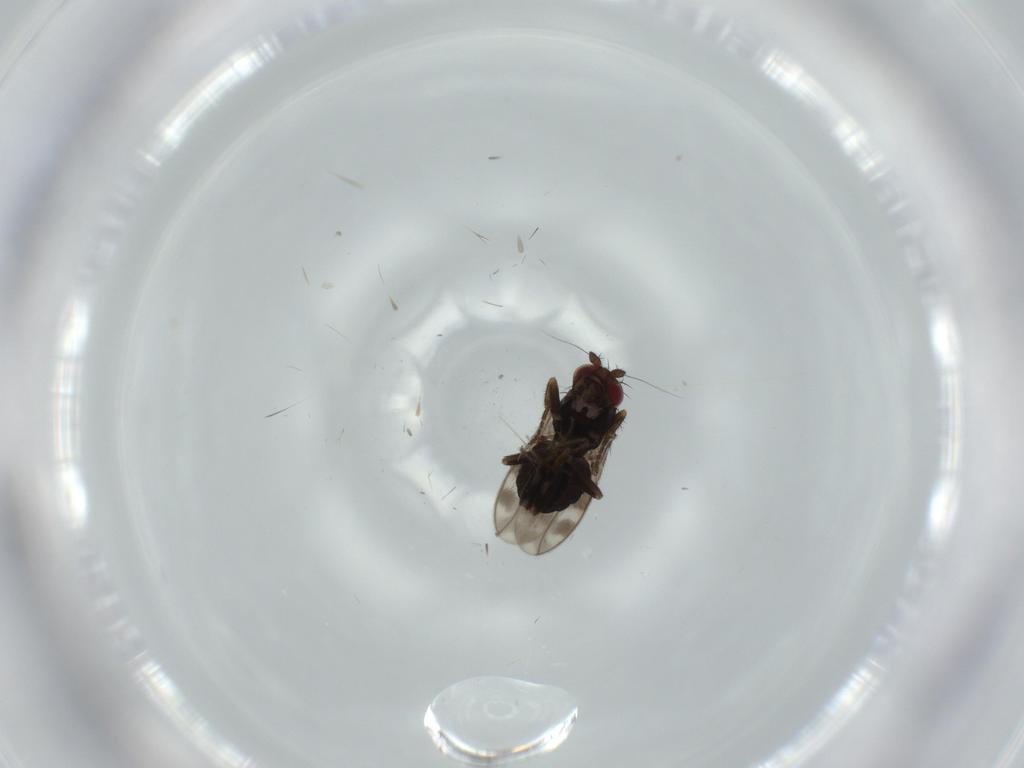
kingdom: Animalia
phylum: Arthropoda
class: Insecta
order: Diptera
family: Sphaeroceridae
